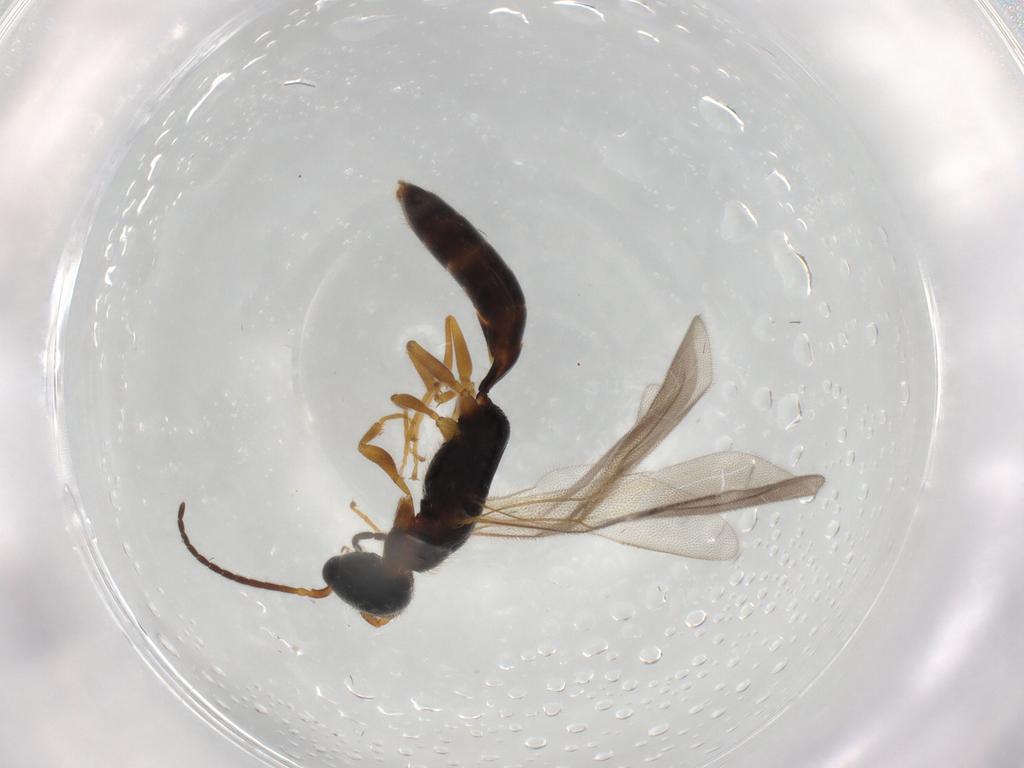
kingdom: Animalia
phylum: Arthropoda
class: Insecta
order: Hymenoptera
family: Bethylidae
